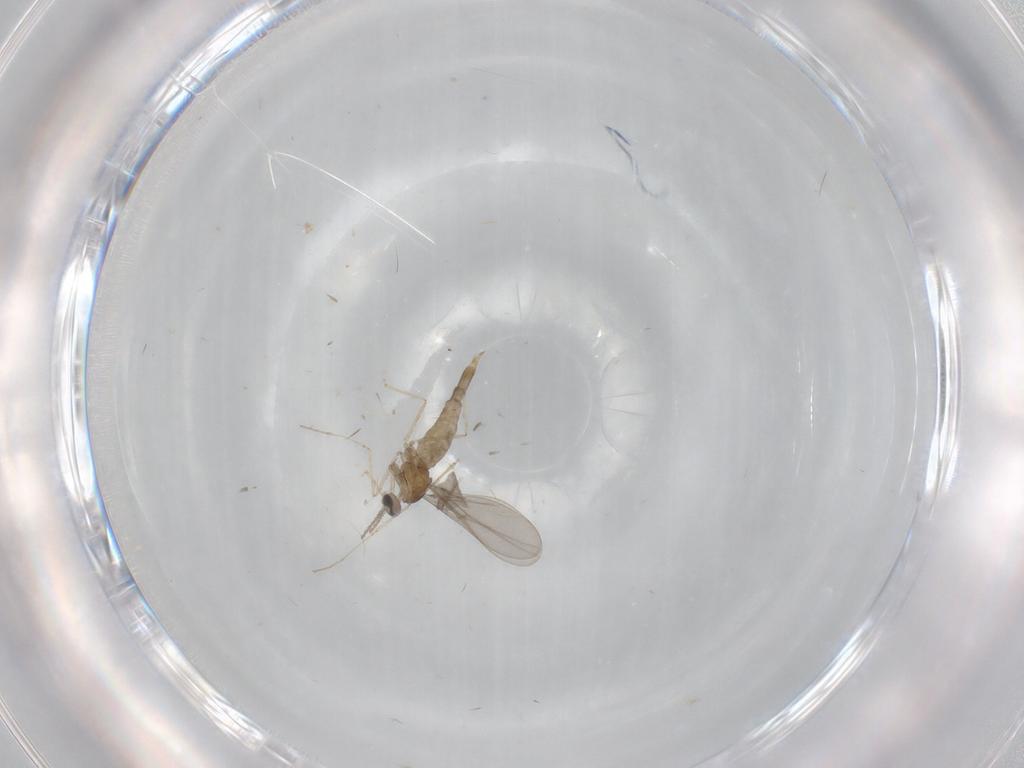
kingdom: Animalia
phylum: Arthropoda
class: Insecta
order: Diptera
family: Chironomidae
